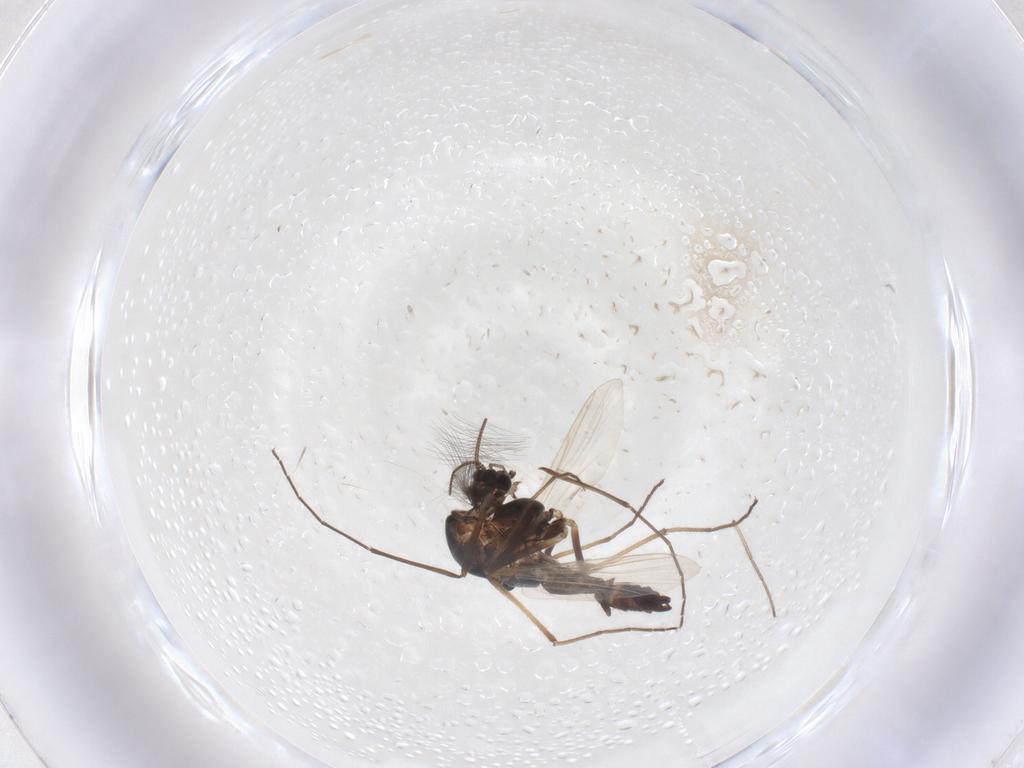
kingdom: Animalia
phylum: Arthropoda
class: Insecta
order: Diptera
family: Chironomidae
